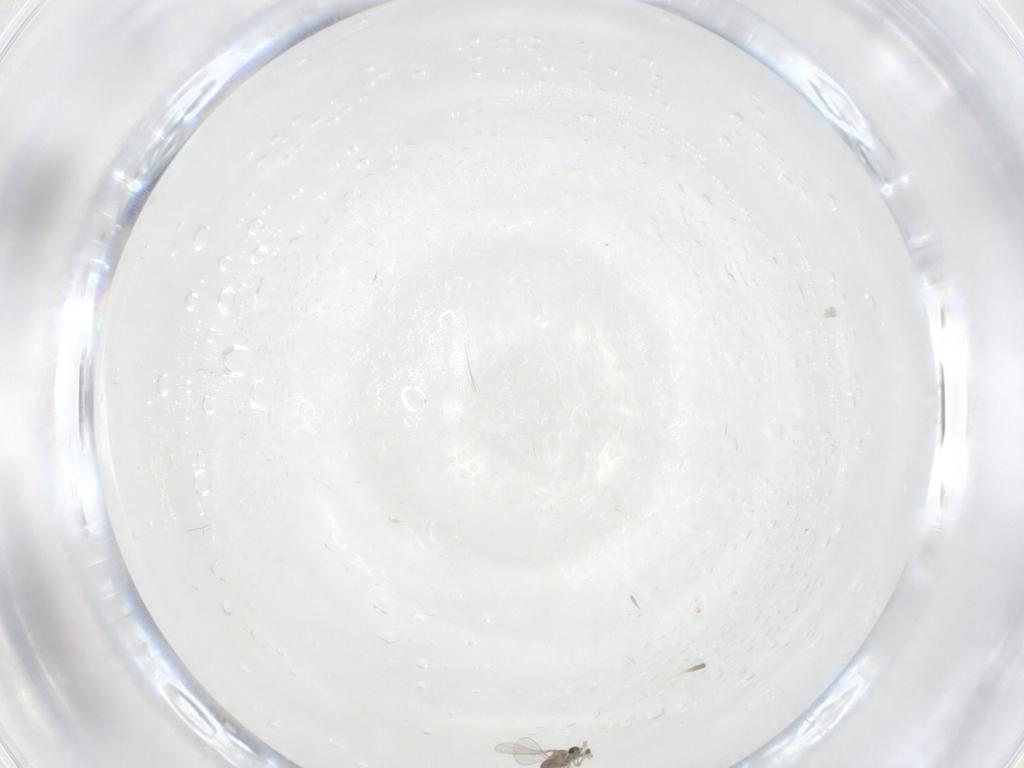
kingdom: Animalia
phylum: Arthropoda
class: Insecta
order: Diptera
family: Cecidomyiidae
